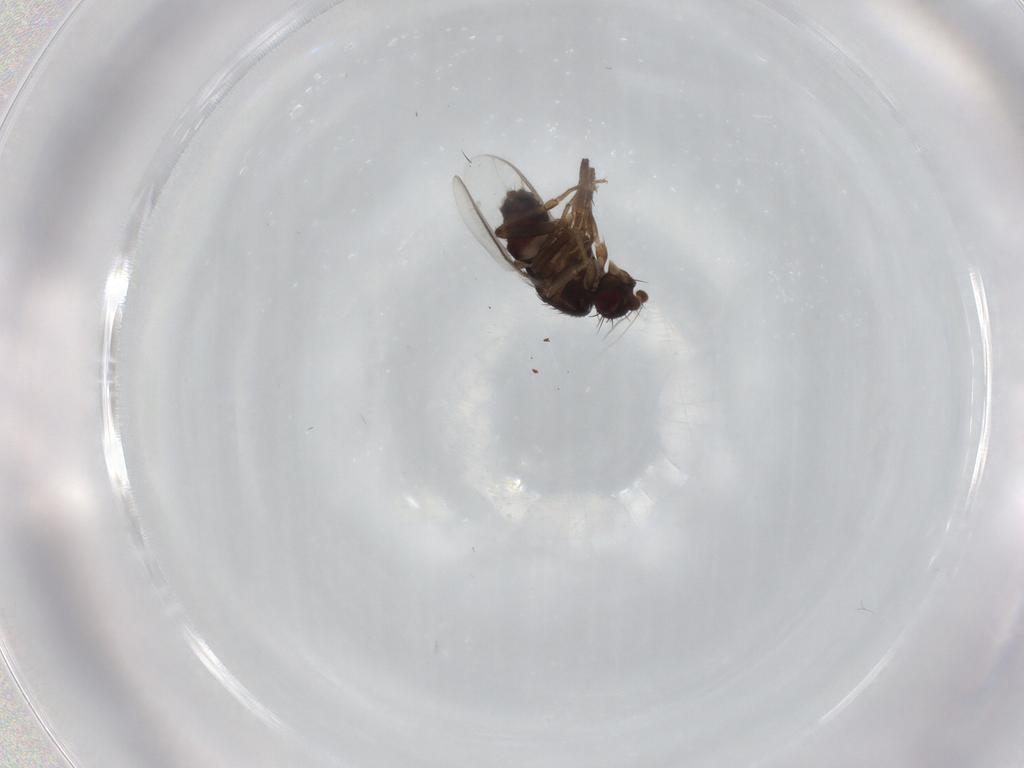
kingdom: Animalia
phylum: Arthropoda
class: Insecta
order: Diptera
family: Sphaeroceridae
